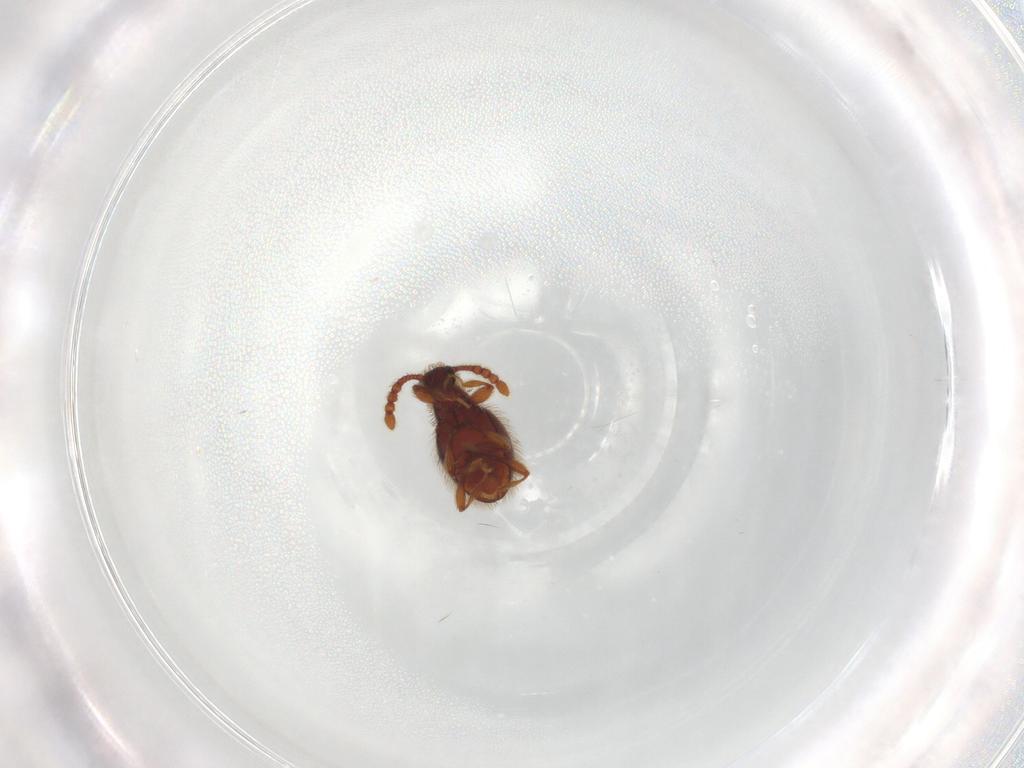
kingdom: Animalia
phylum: Arthropoda
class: Insecta
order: Coleoptera
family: Staphylinidae
